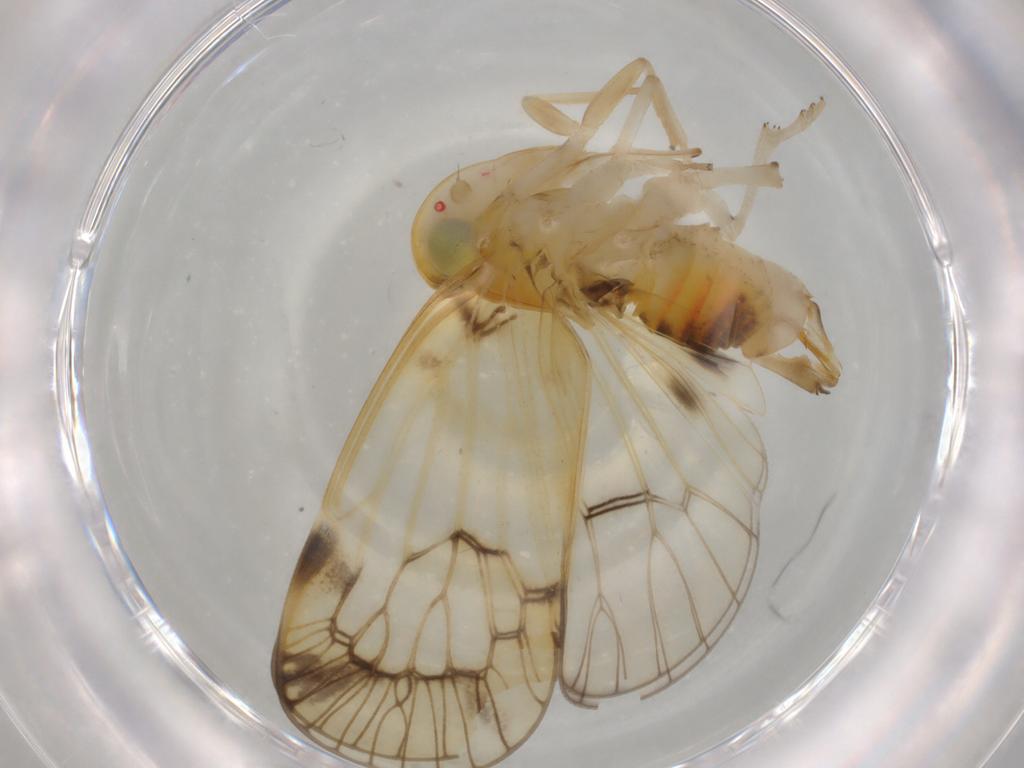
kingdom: Animalia
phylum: Arthropoda
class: Insecta
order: Hemiptera
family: Cixiidae
